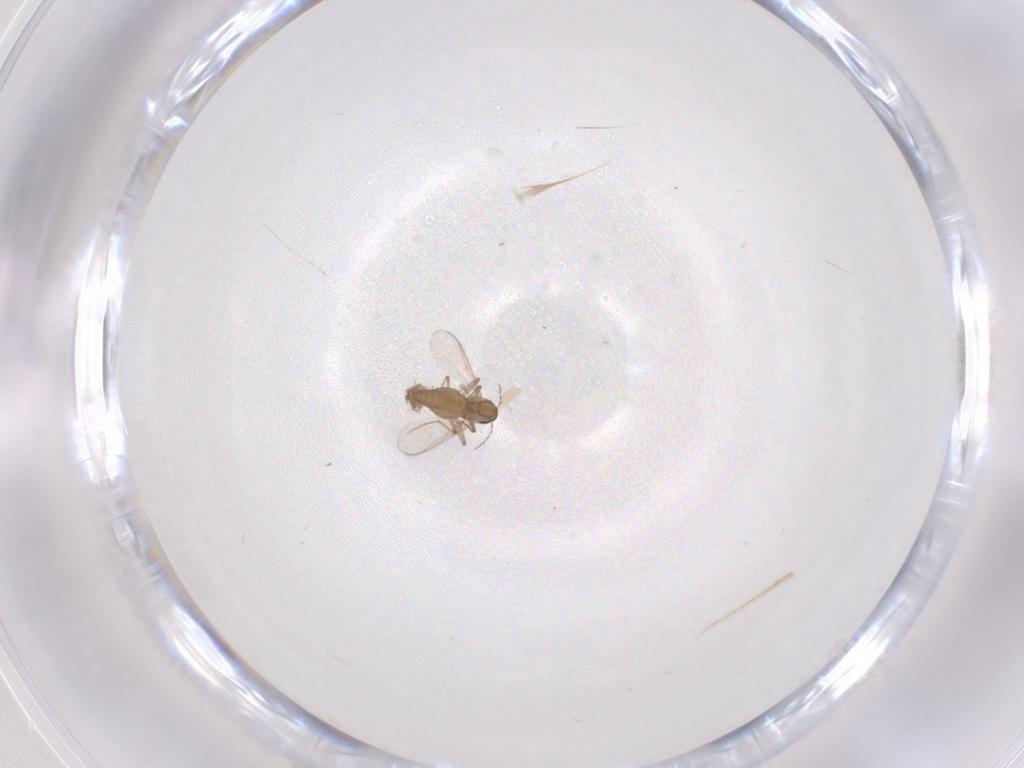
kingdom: Animalia
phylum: Arthropoda
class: Insecta
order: Diptera
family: Chironomidae
